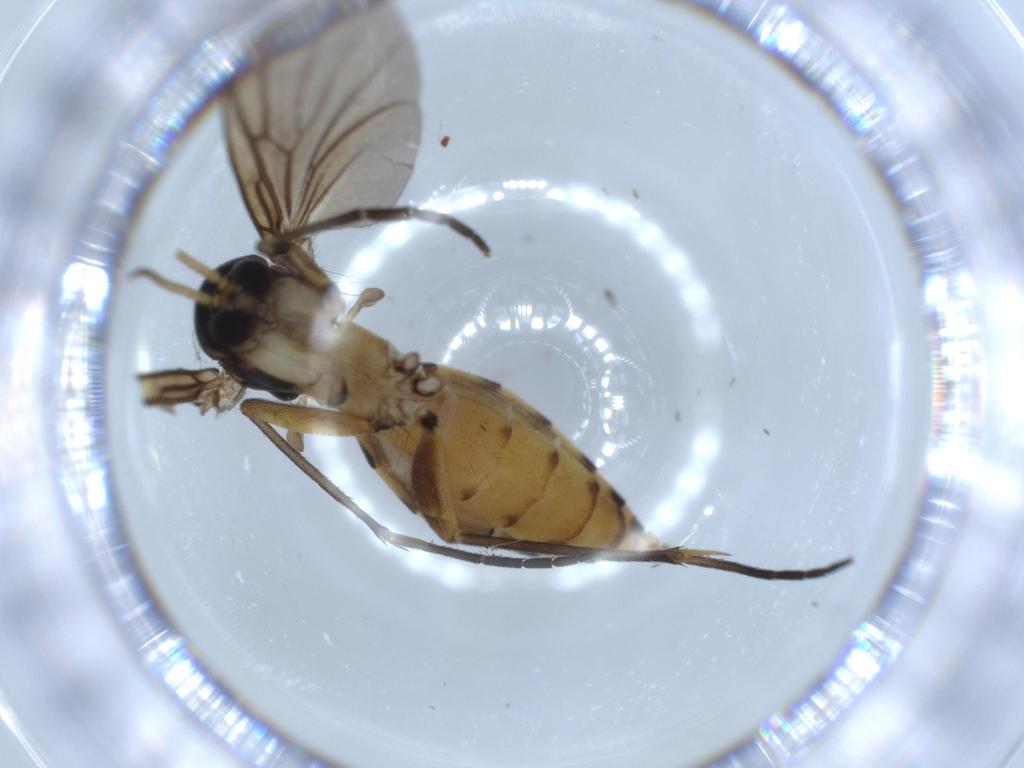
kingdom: Animalia
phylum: Arthropoda
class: Insecta
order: Diptera
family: Mycetophilidae
